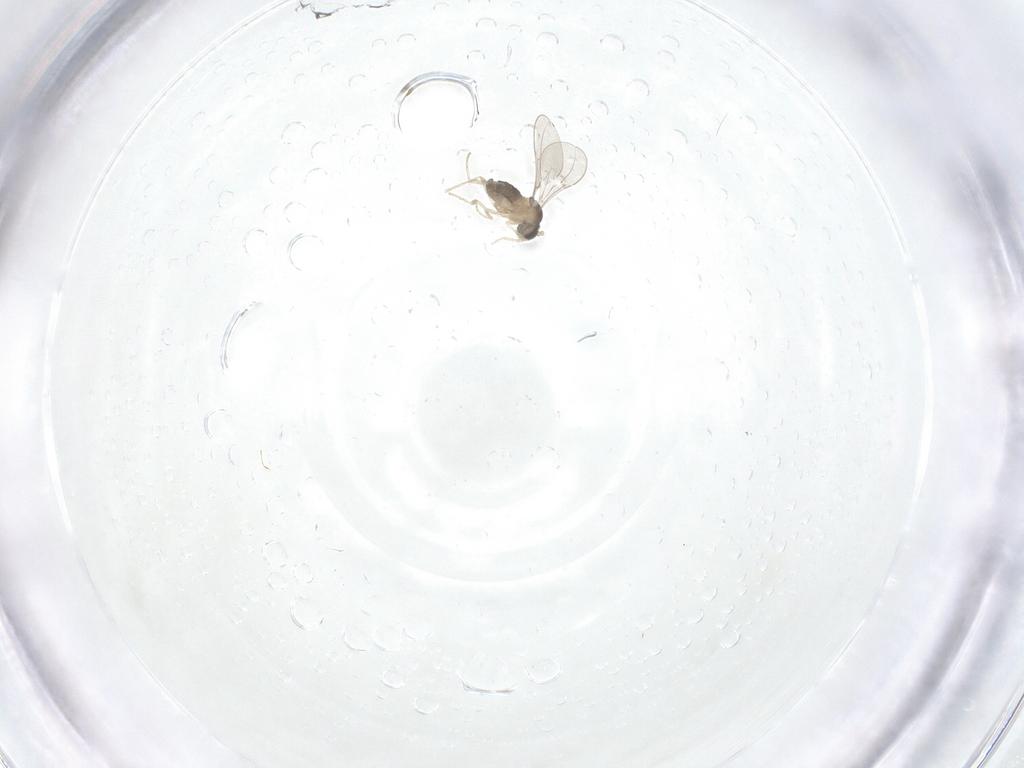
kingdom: Animalia
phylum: Arthropoda
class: Insecta
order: Diptera
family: Cecidomyiidae
